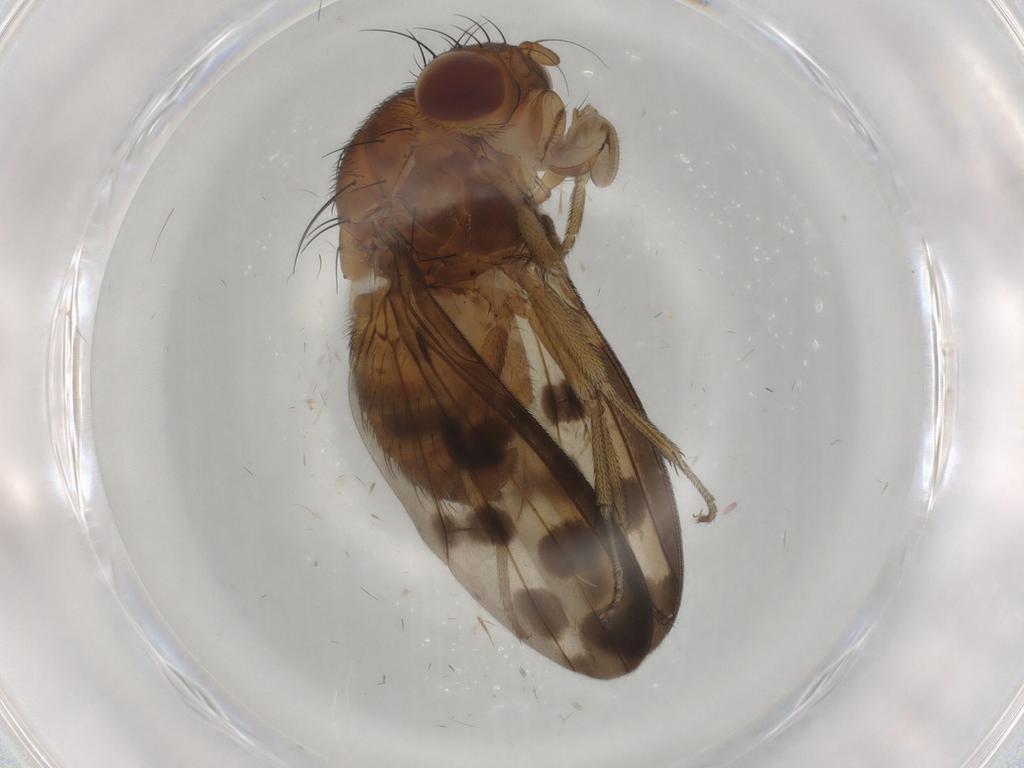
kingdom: Animalia
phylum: Arthropoda
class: Insecta
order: Diptera
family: Lauxaniidae
